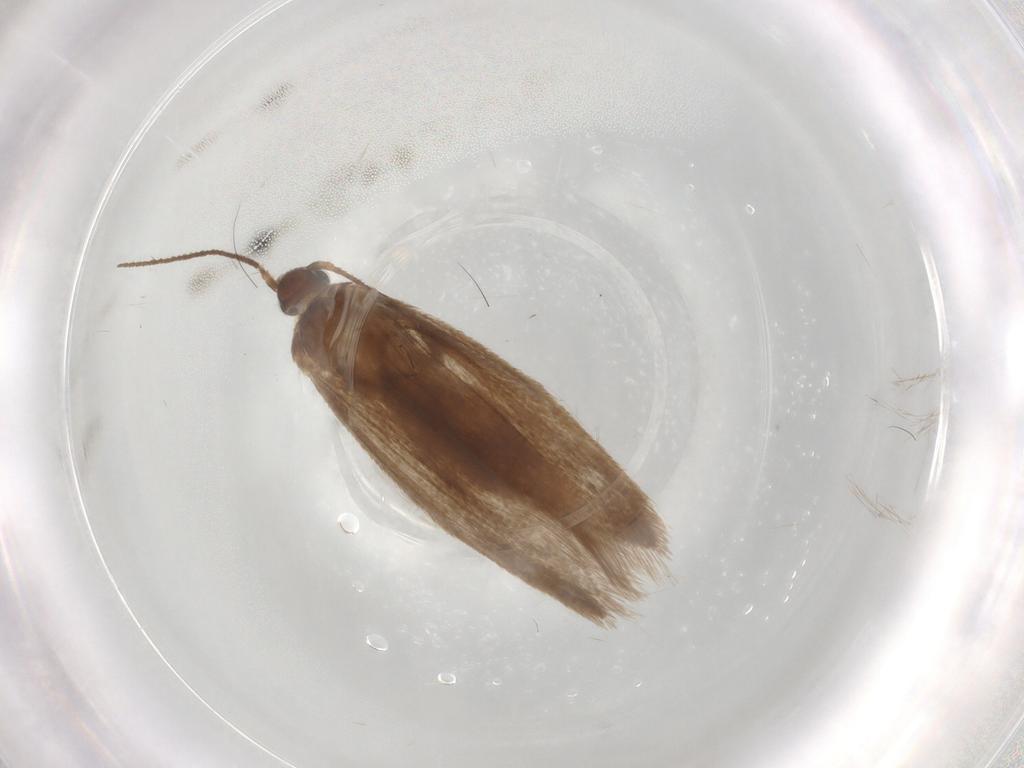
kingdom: Animalia
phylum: Arthropoda
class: Insecta
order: Lepidoptera
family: Limacodidae
